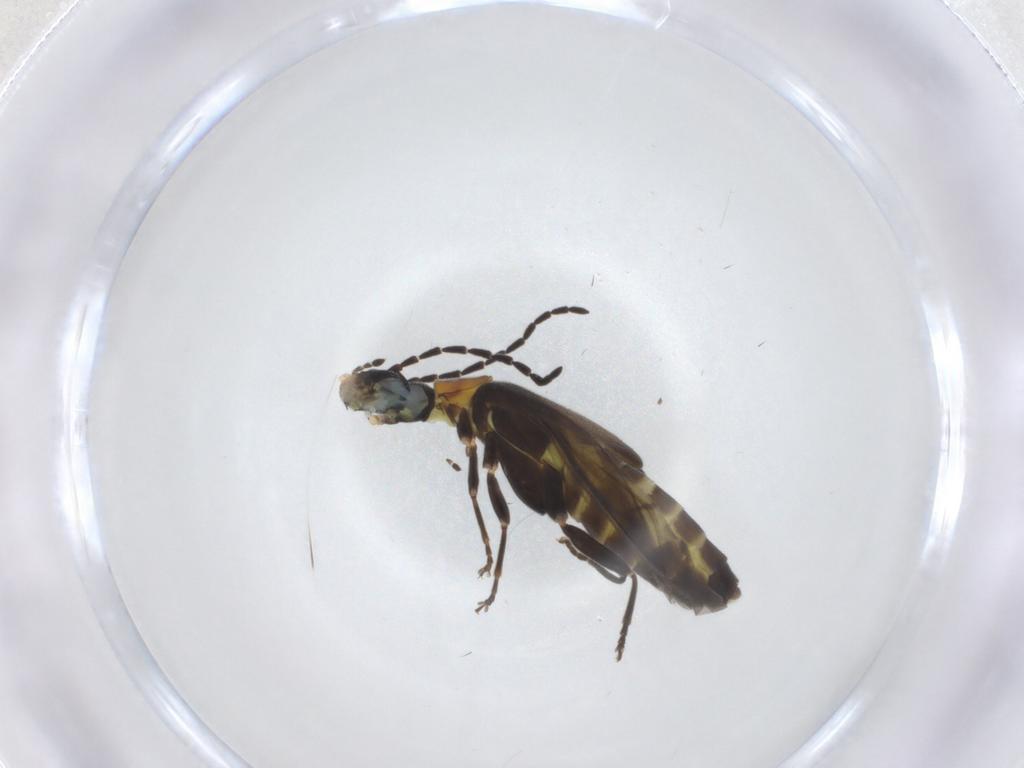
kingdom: Animalia
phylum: Arthropoda
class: Insecta
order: Coleoptera
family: Cantharidae
